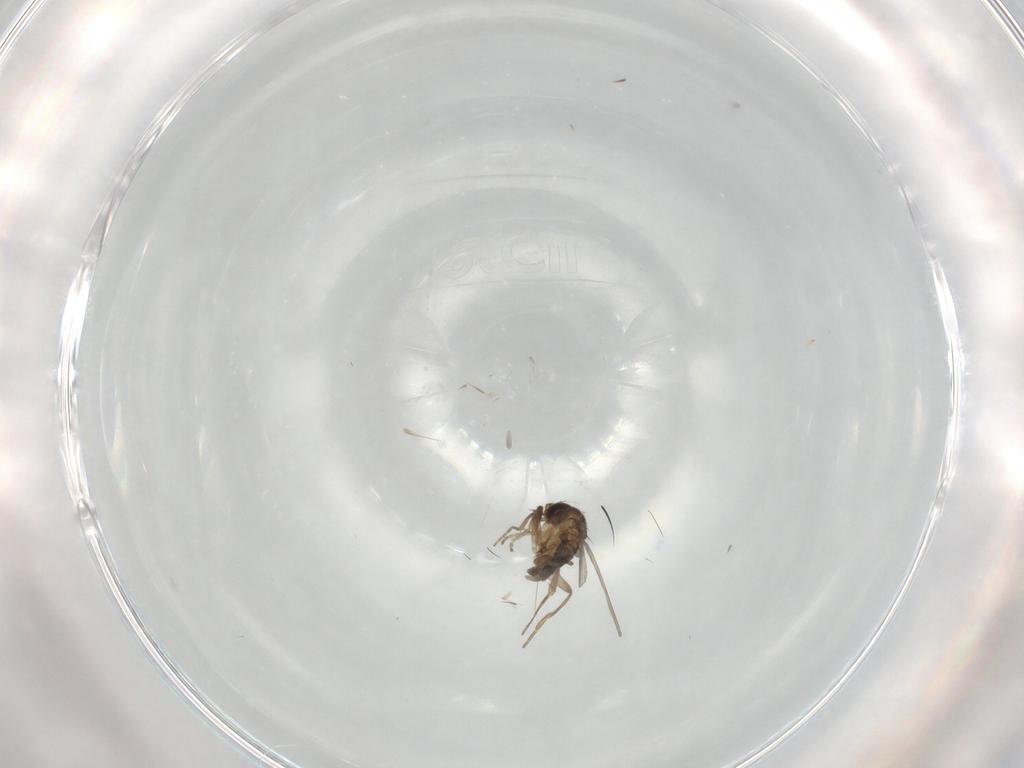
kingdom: Animalia
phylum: Arthropoda
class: Insecta
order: Diptera
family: Phoridae
